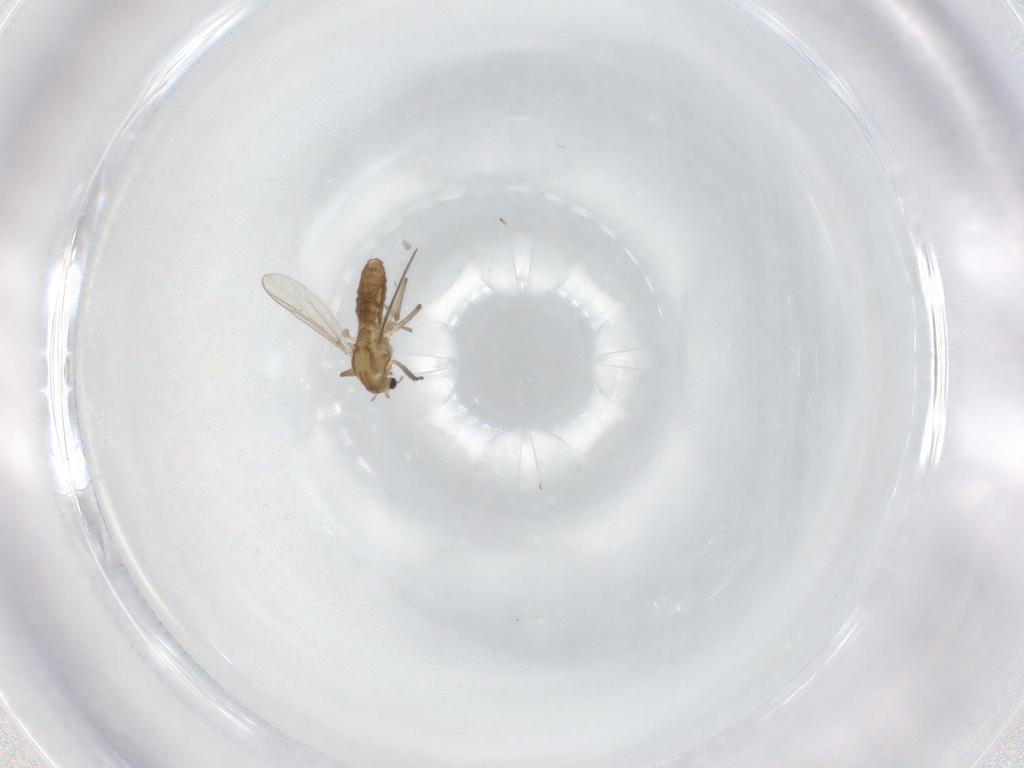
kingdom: Animalia
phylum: Arthropoda
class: Insecta
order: Diptera
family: Chironomidae
